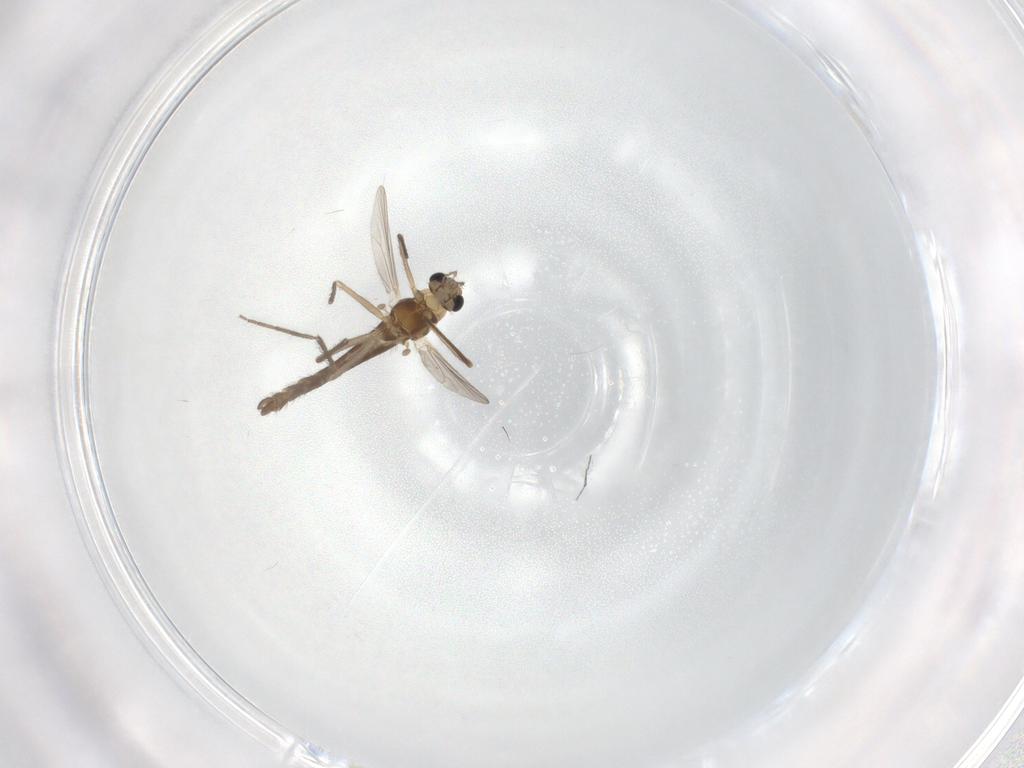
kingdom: Animalia
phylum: Arthropoda
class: Insecta
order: Diptera
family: Chironomidae
